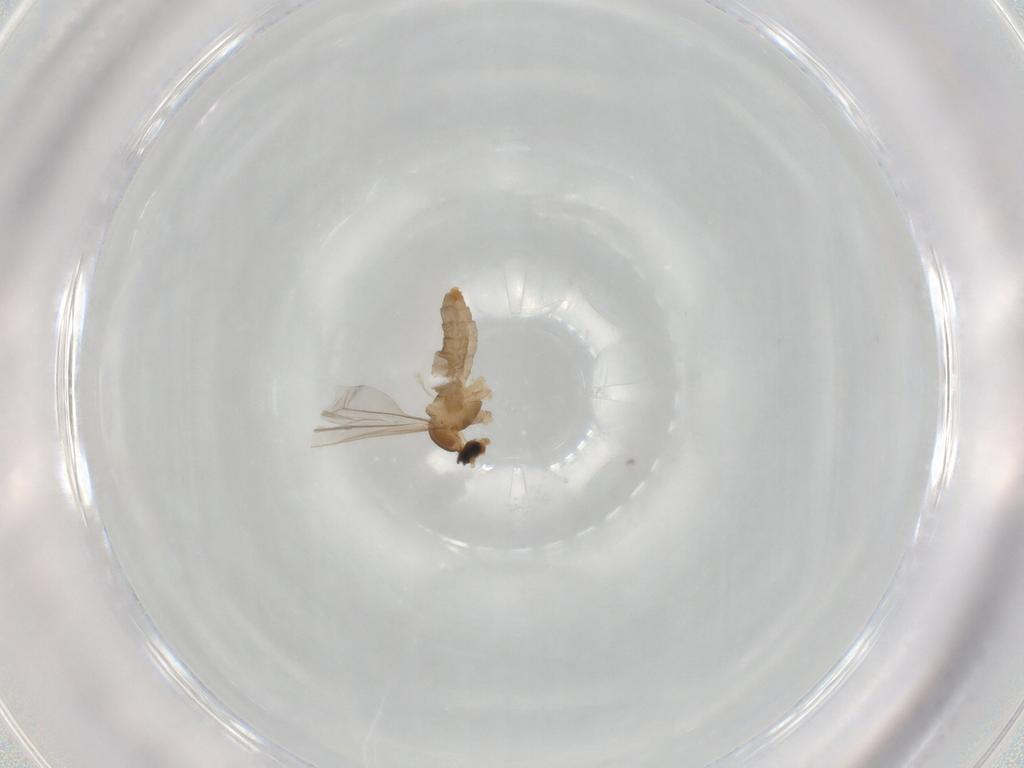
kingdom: Animalia
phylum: Arthropoda
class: Insecta
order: Diptera
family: Cecidomyiidae
